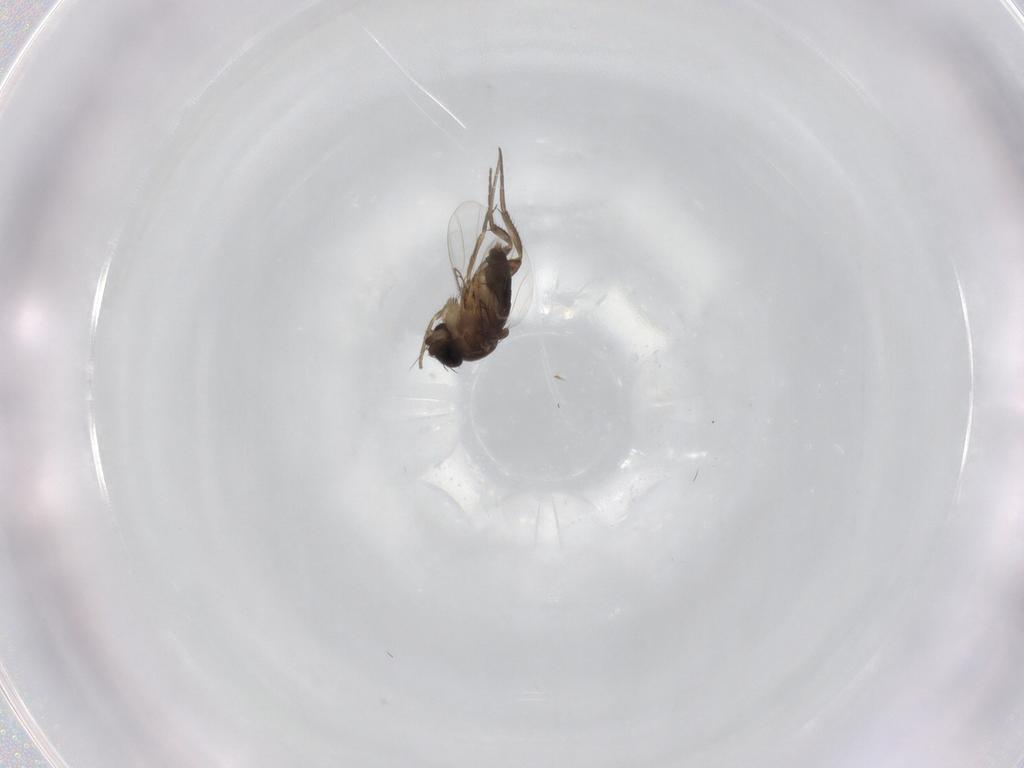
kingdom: Animalia
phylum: Arthropoda
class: Insecta
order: Diptera
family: Phoridae
